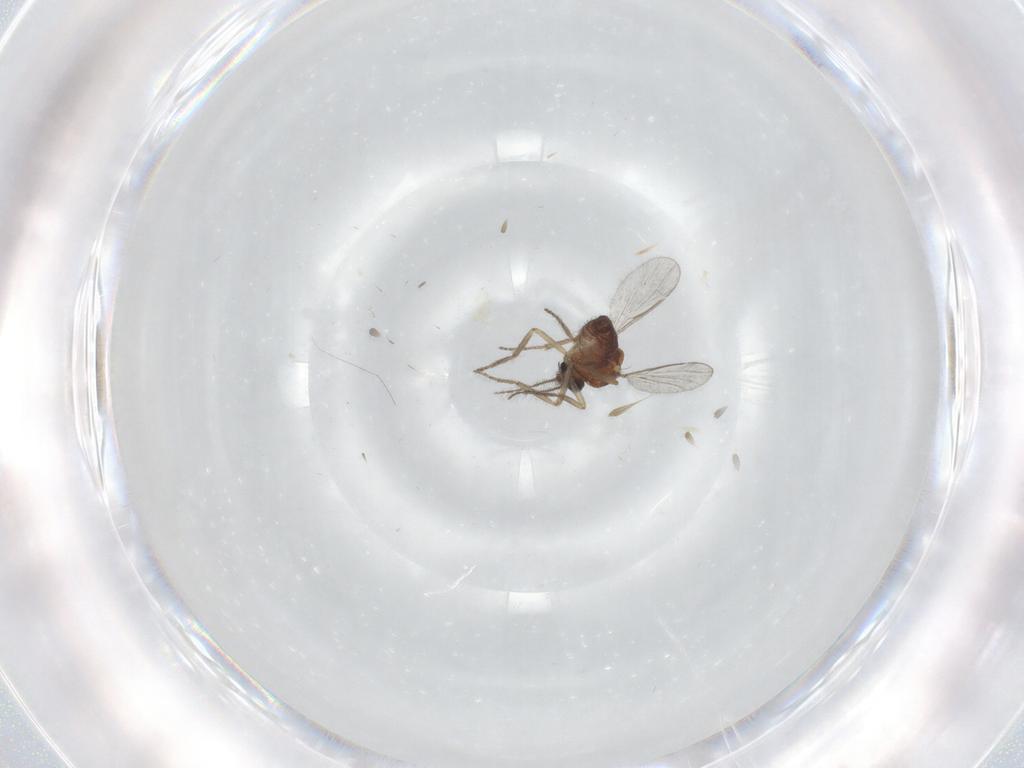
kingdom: Animalia
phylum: Arthropoda
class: Insecta
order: Diptera
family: Ceratopogonidae
